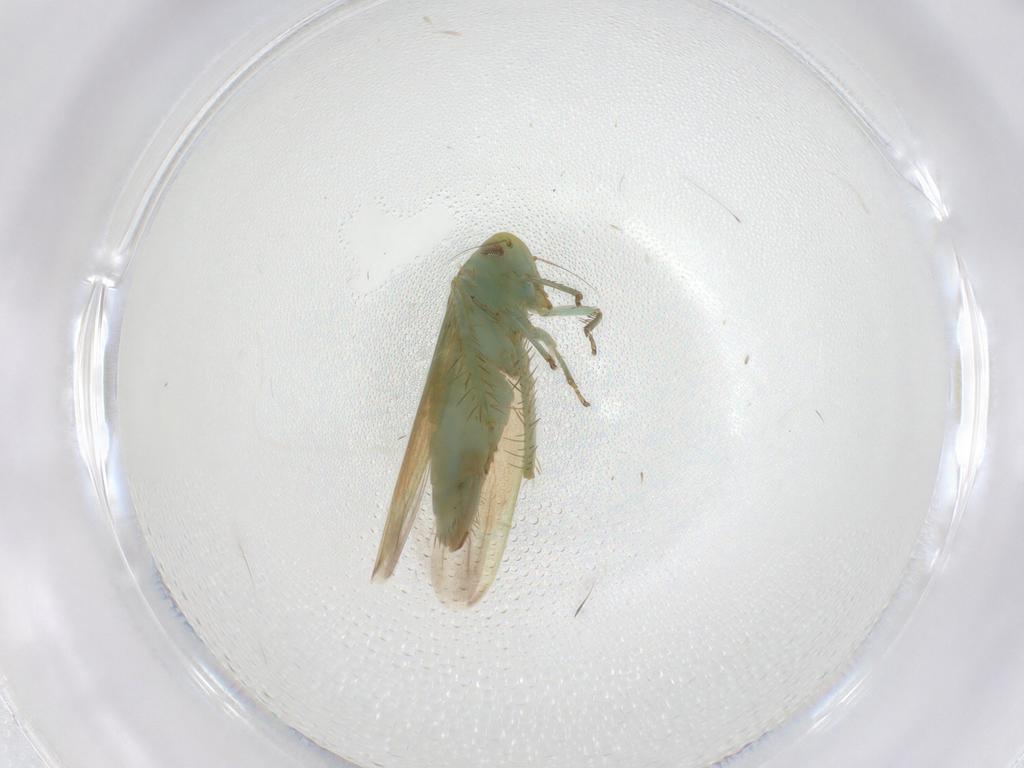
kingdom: Animalia
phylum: Arthropoda
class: Insecta
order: Hemiptera
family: Cicadellidae
